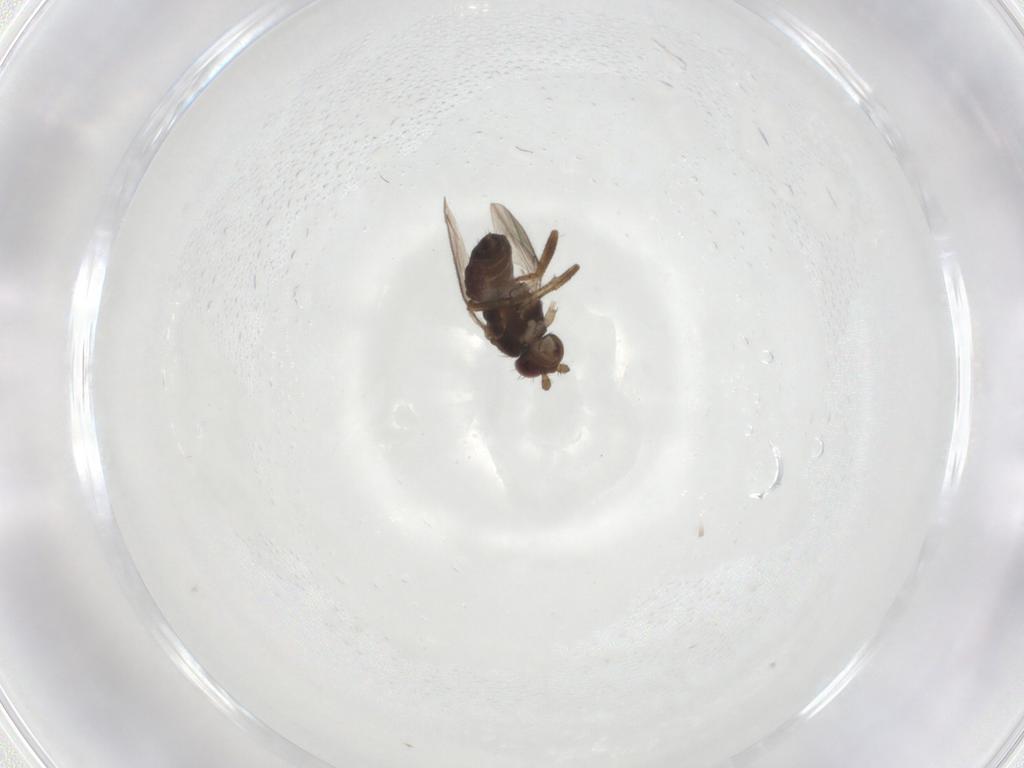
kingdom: Animalia
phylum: Arthropoda
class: Insecta
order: Diptera
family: Sphaeroceridae
